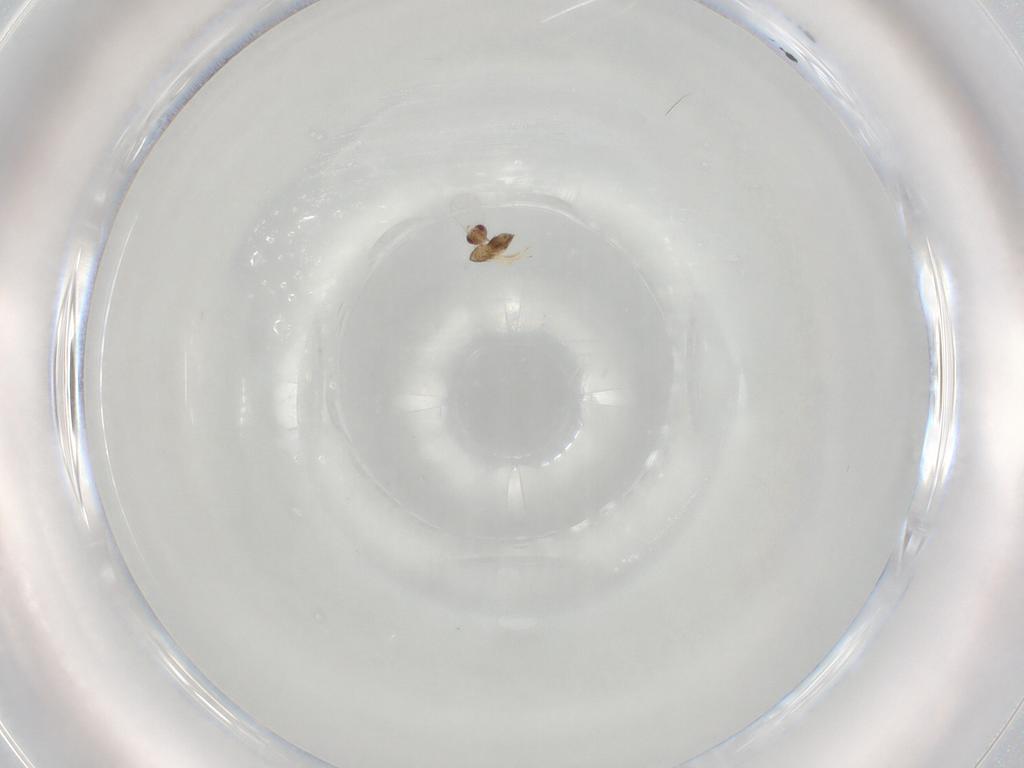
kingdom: Animalia
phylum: Arthropoda
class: Insecta
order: Hymenoptera
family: Trichogrammatidae
